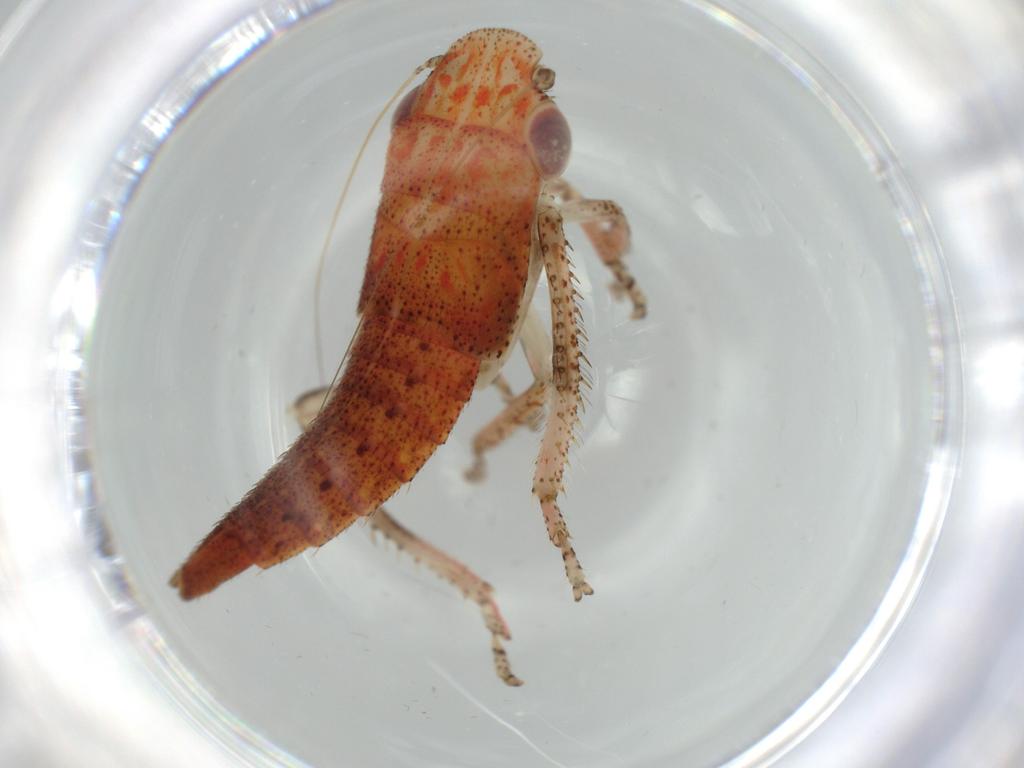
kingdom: Animalia
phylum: Arthropoda
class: Insecta
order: Hemiptera
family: Cicadellidae
